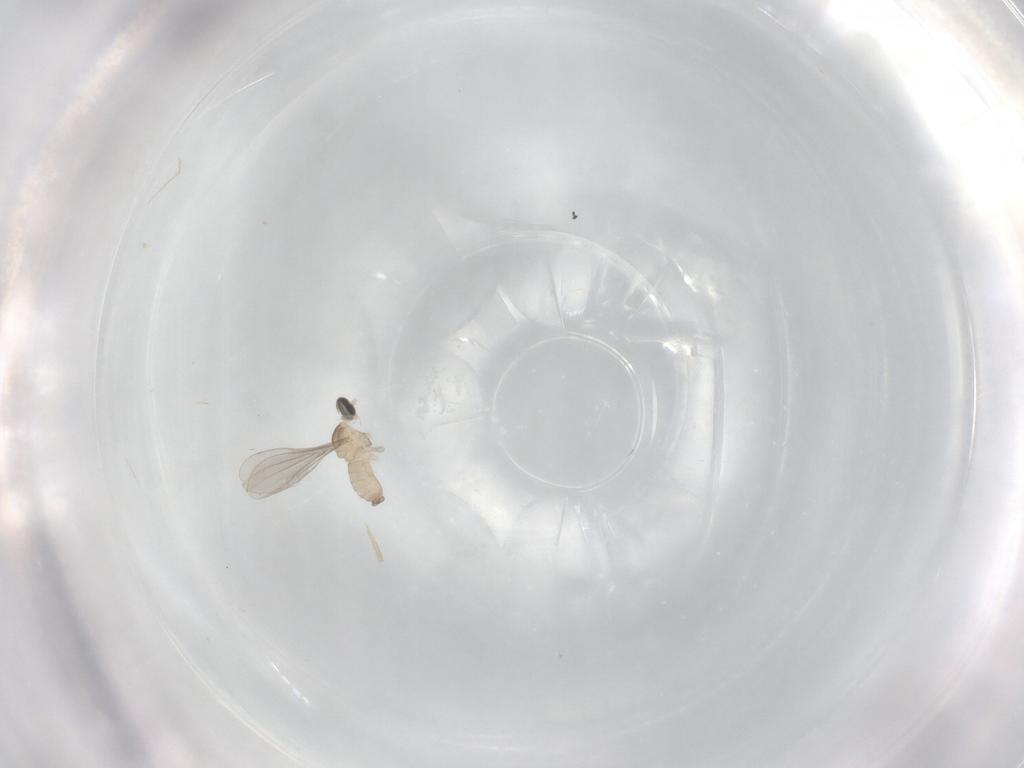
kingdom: Animalia
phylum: Arthropoda
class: Insecta
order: Diptera
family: Cecidomyiidae
